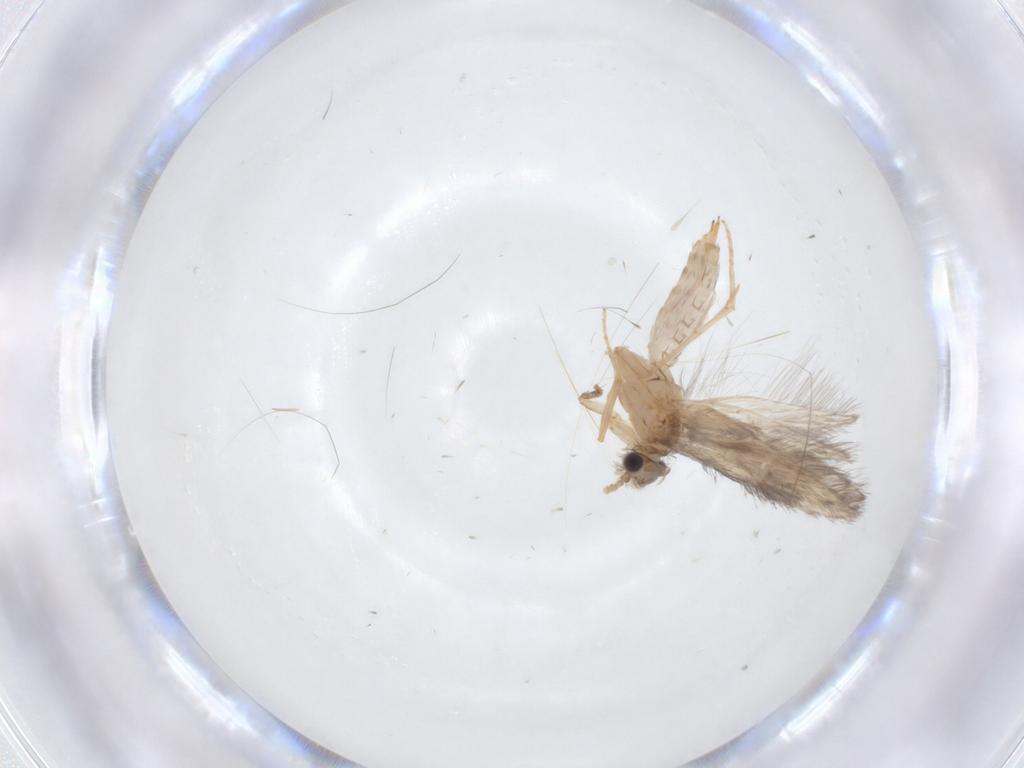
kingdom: Animalia
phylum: Arthropoda
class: Insecta
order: Trichoptera
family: Hydroptilidae
